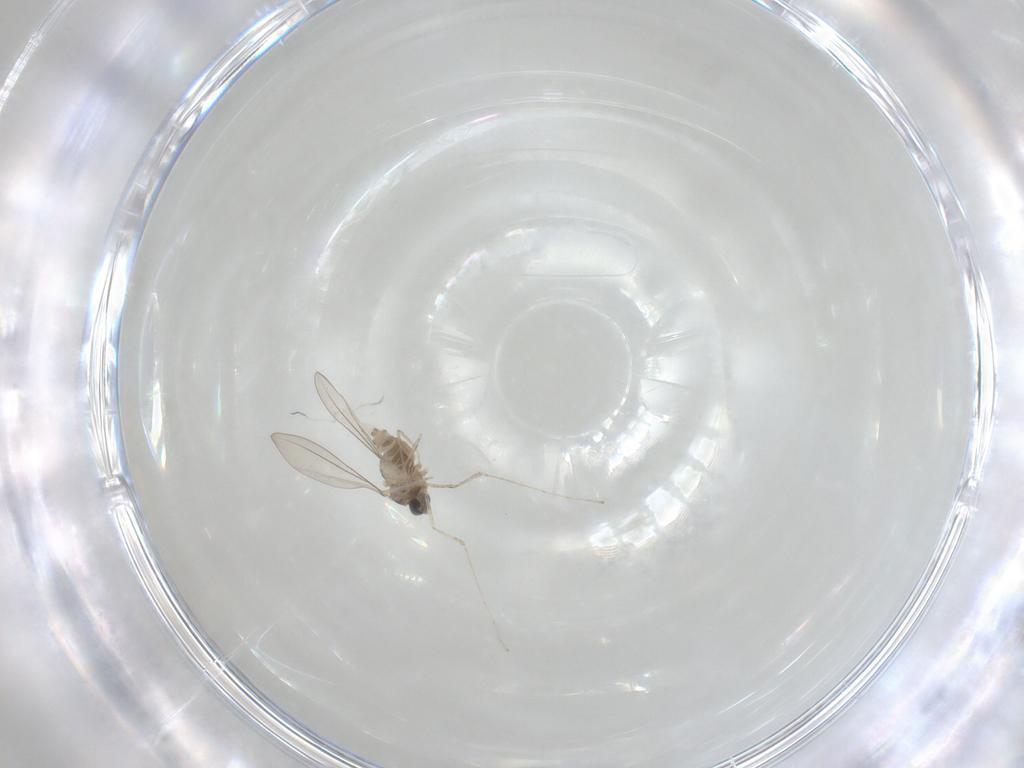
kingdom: Animalia
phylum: Arthropoda
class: Insecta
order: Diptera
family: Cecidomyiidae
